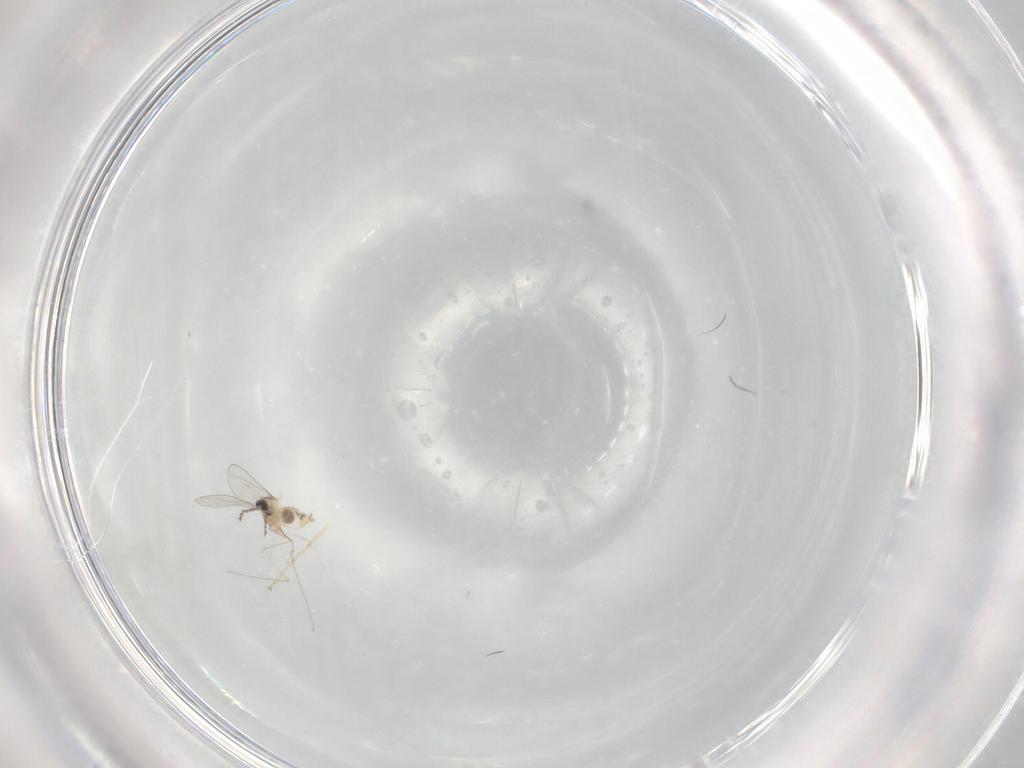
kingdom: Animalia
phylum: Arthropoda
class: Insecta
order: Diptera
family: Cecidomyiidae
